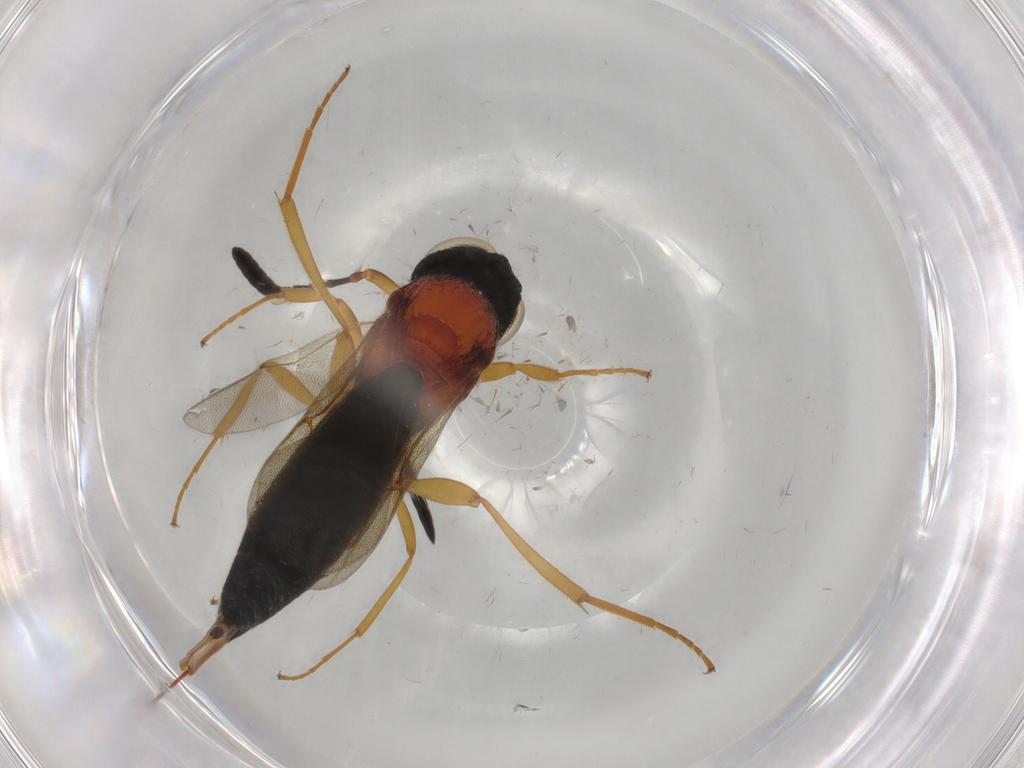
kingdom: Animalia
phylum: Arthropoda
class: Insecta
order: Hymenoptera
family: Scelionidae
